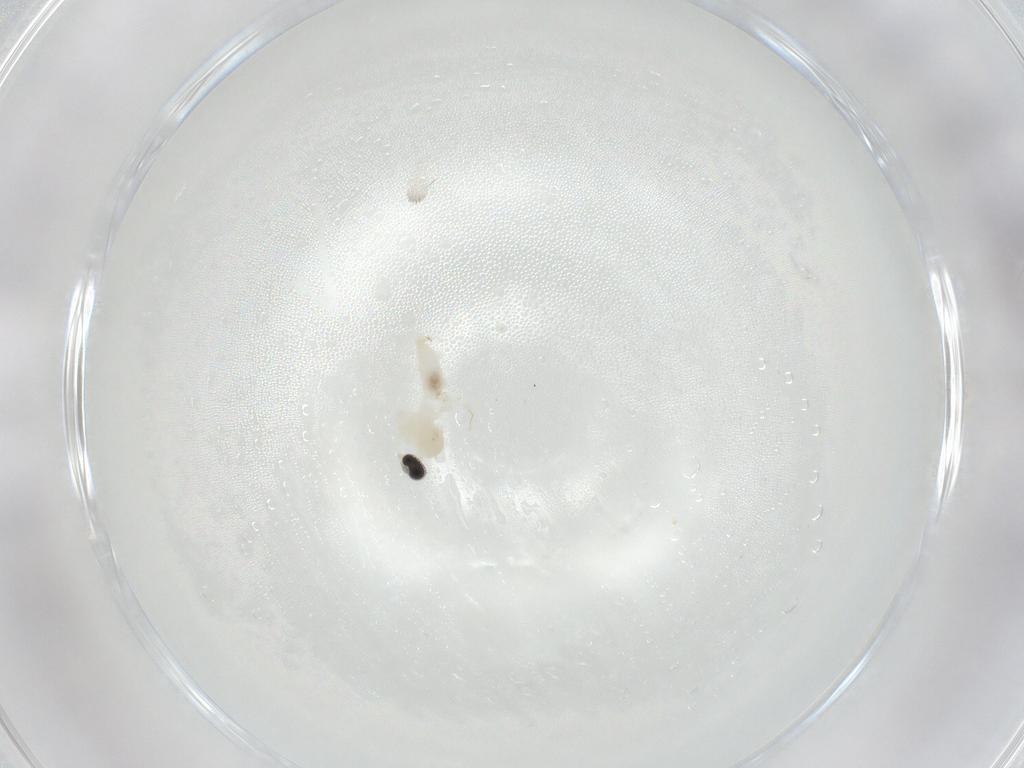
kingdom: Animalia
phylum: Arthropoda
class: Insecta
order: Diptera
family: Cecidomyiidae
